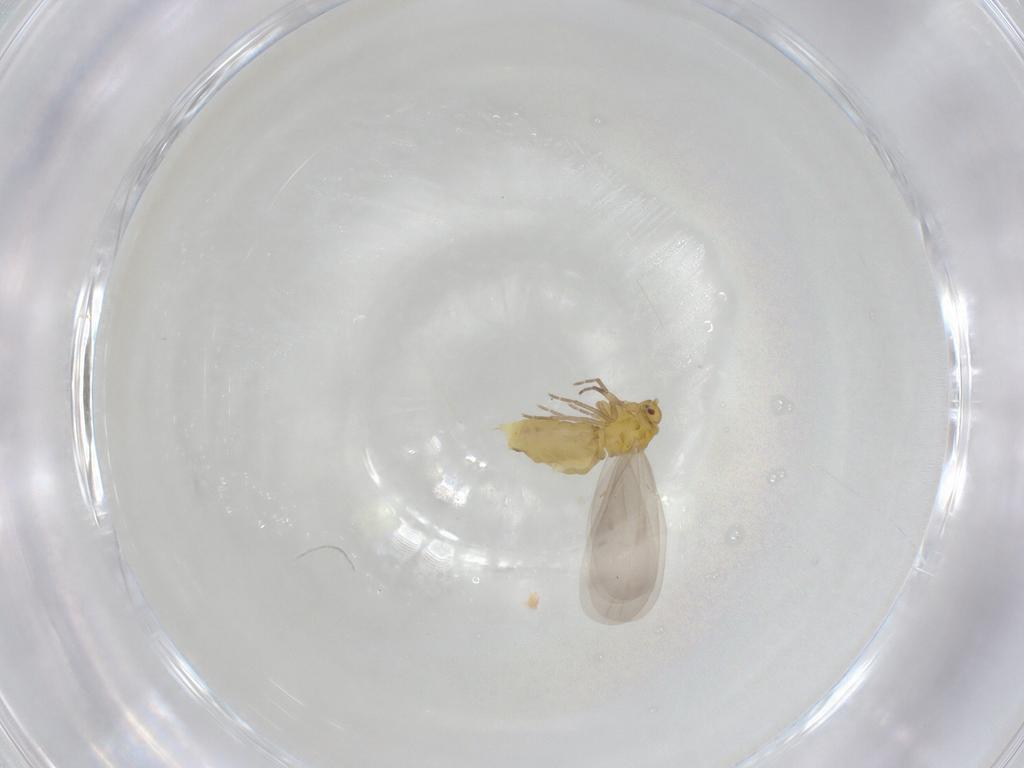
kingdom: Animalia
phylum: Arthropoda
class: Insecta
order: Hemiptera
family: Aleyrodidae
